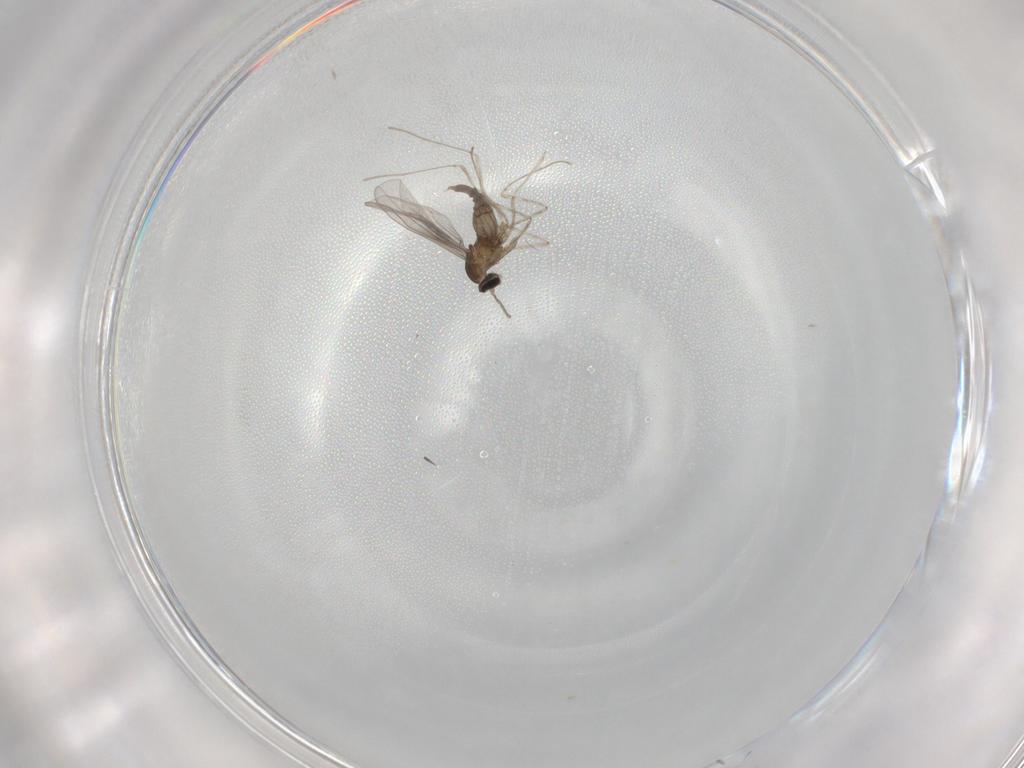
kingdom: Animalia
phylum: Arthropoda
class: Insecta
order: Diptera
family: Cecidomyiidae
